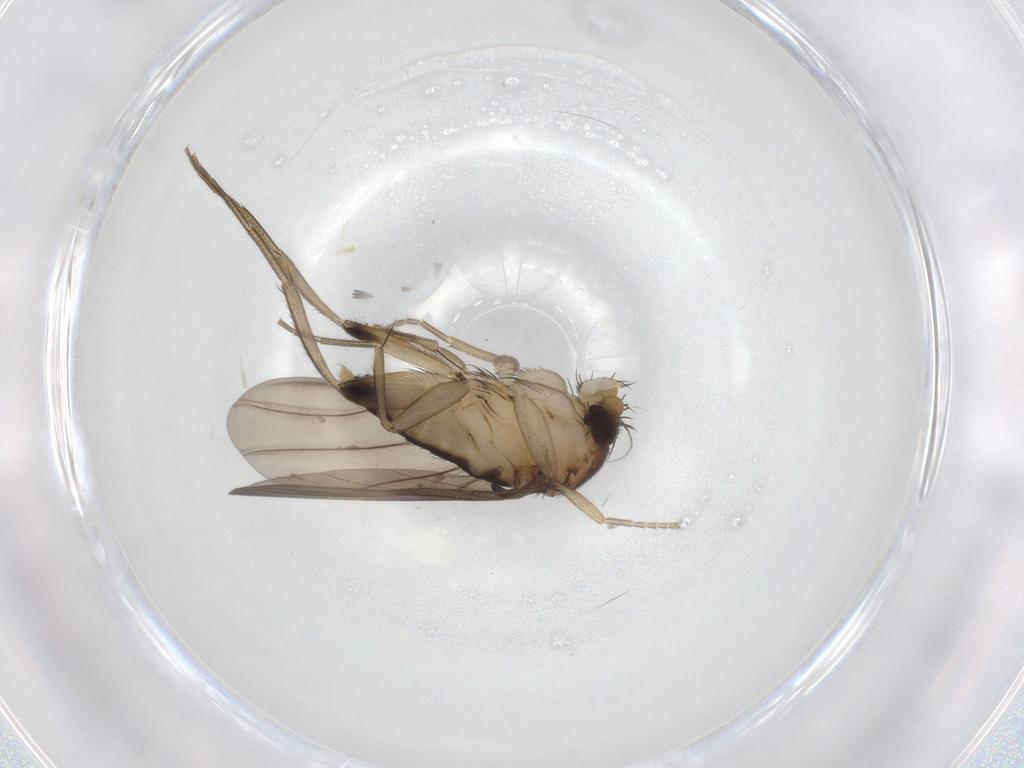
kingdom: Animalia
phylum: Arthropoda
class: Insecta
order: Diptera
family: Phoridae
